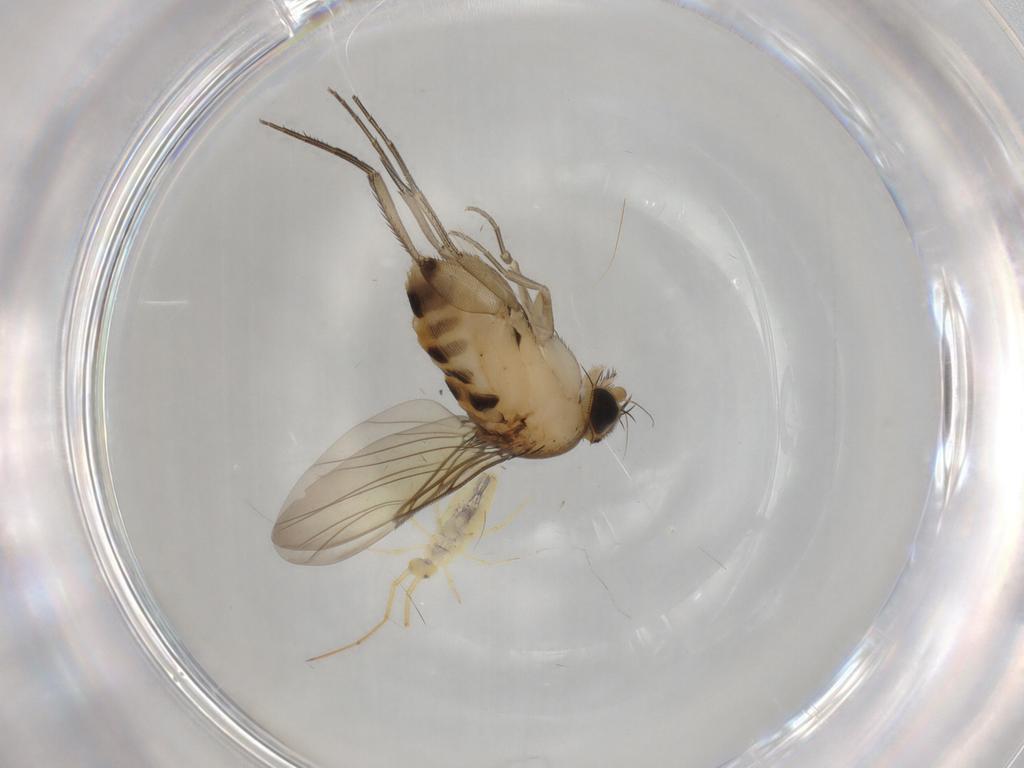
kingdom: Animalia
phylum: Arthropoda
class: Insecta
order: Diptera
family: Phoridae
